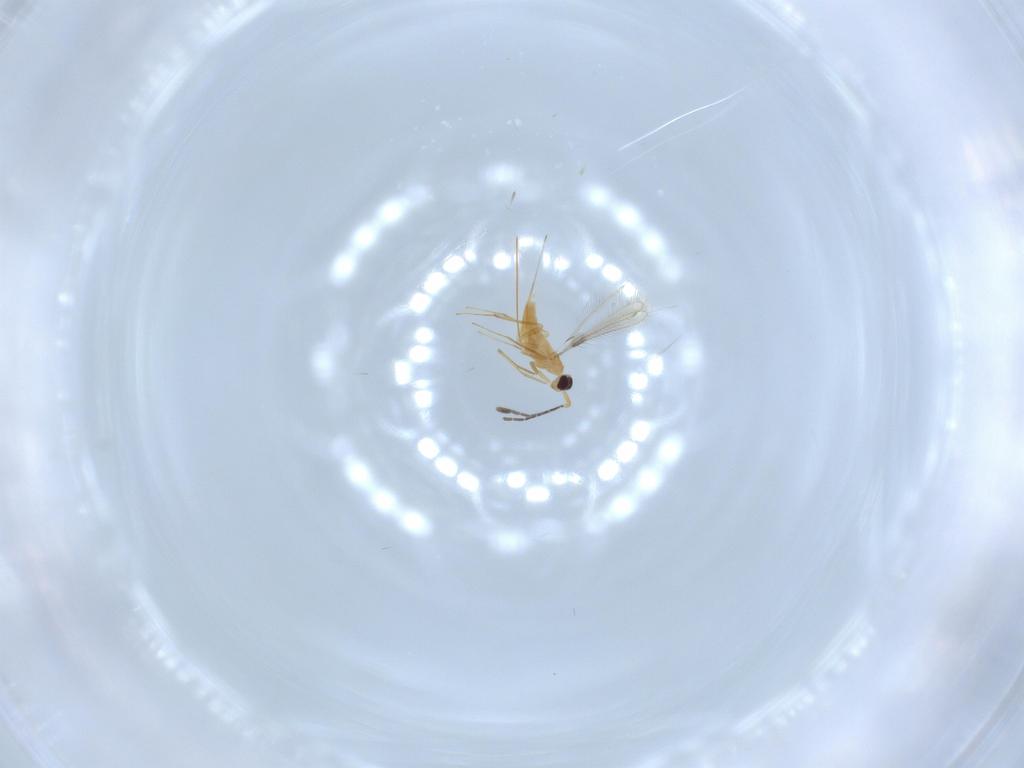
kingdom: Animalia
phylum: Arthropoda
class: Insecta
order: Hymenoptera
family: Mymaridae
